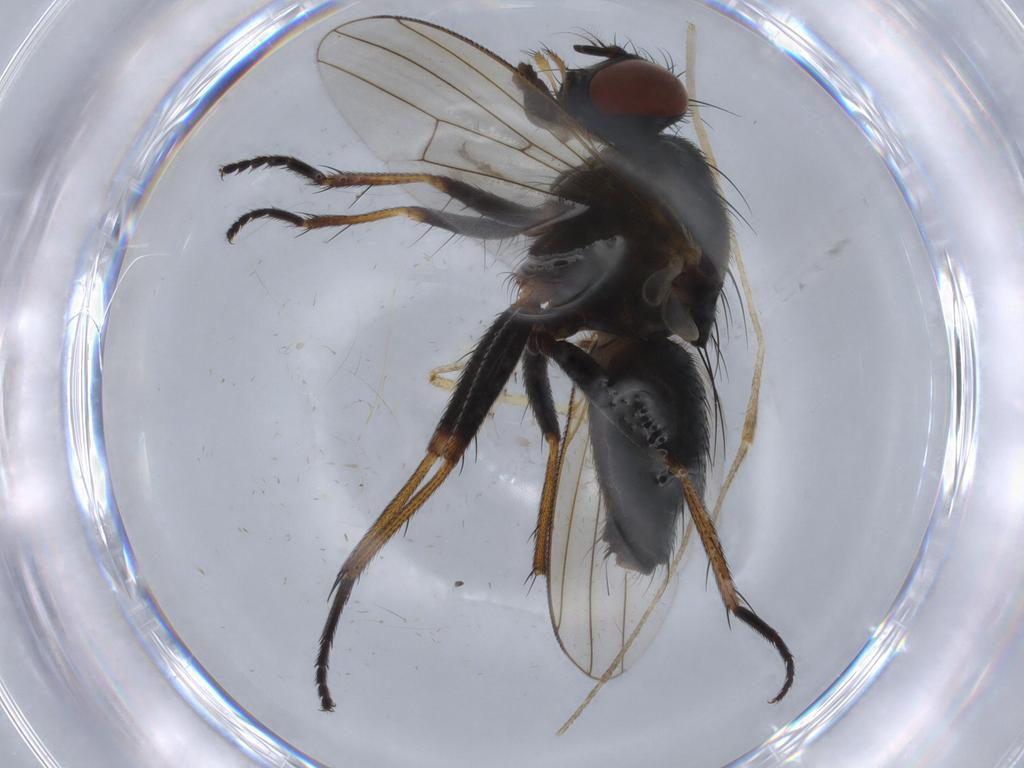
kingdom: Animalia
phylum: Arthropoda
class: Insecta
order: Diptera
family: Muscidae
